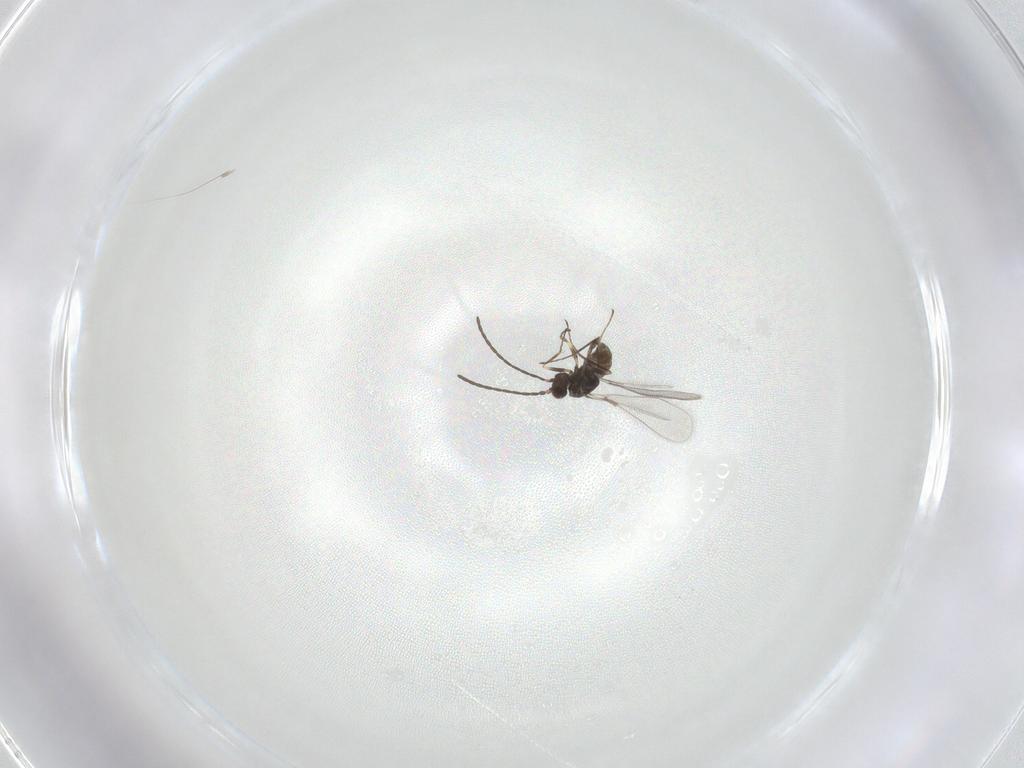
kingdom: Animalia
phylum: Arthropoda
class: Insecta
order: Hymenoptera
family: Mymaridae
